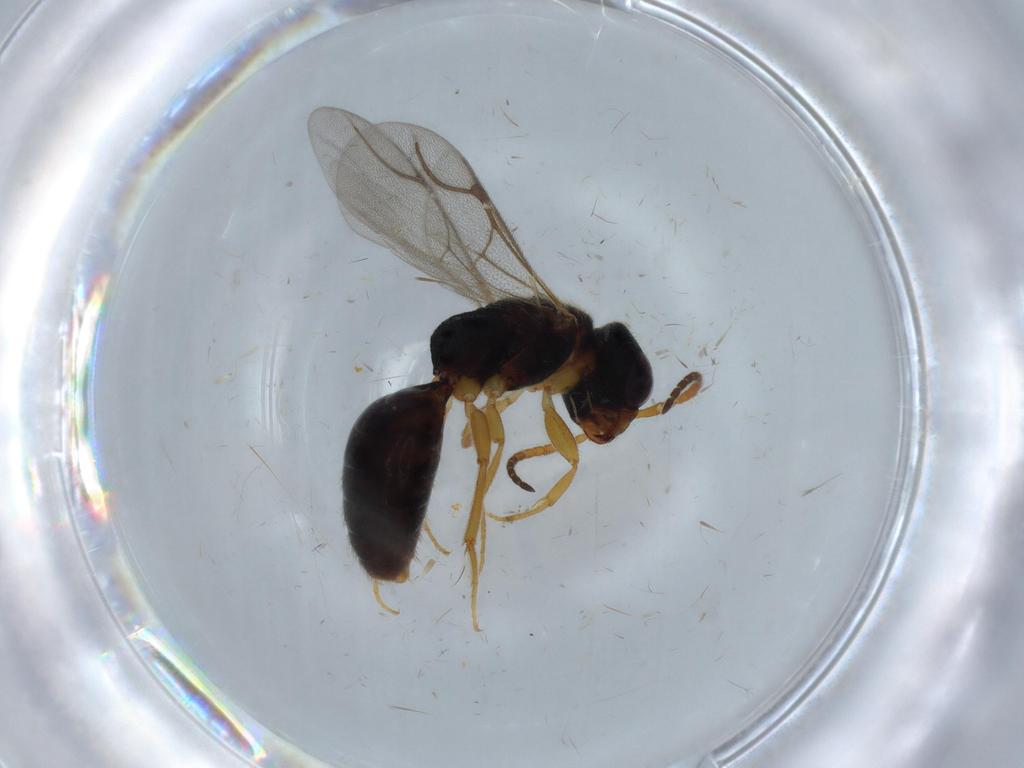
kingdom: Animalia
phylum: Arthropoda
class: Insecta
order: Hymenoptera
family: Bethylidae
